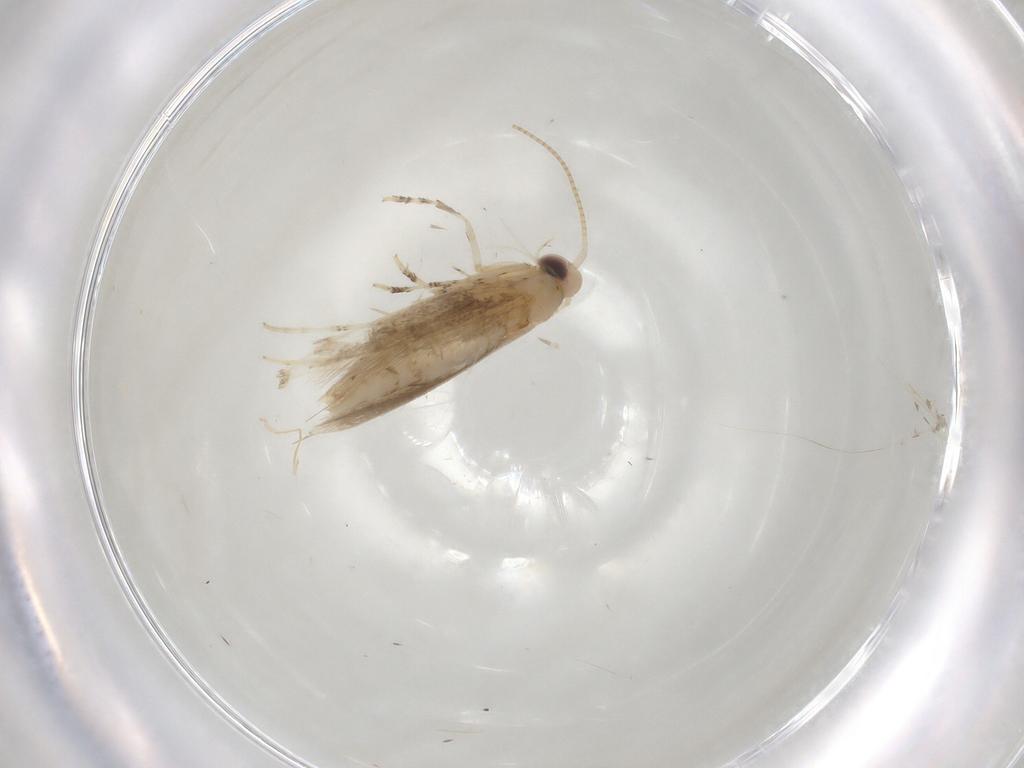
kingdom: Animalia
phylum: Arthropoda
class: Insecta
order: Lepidoptera
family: Gracillariidae
